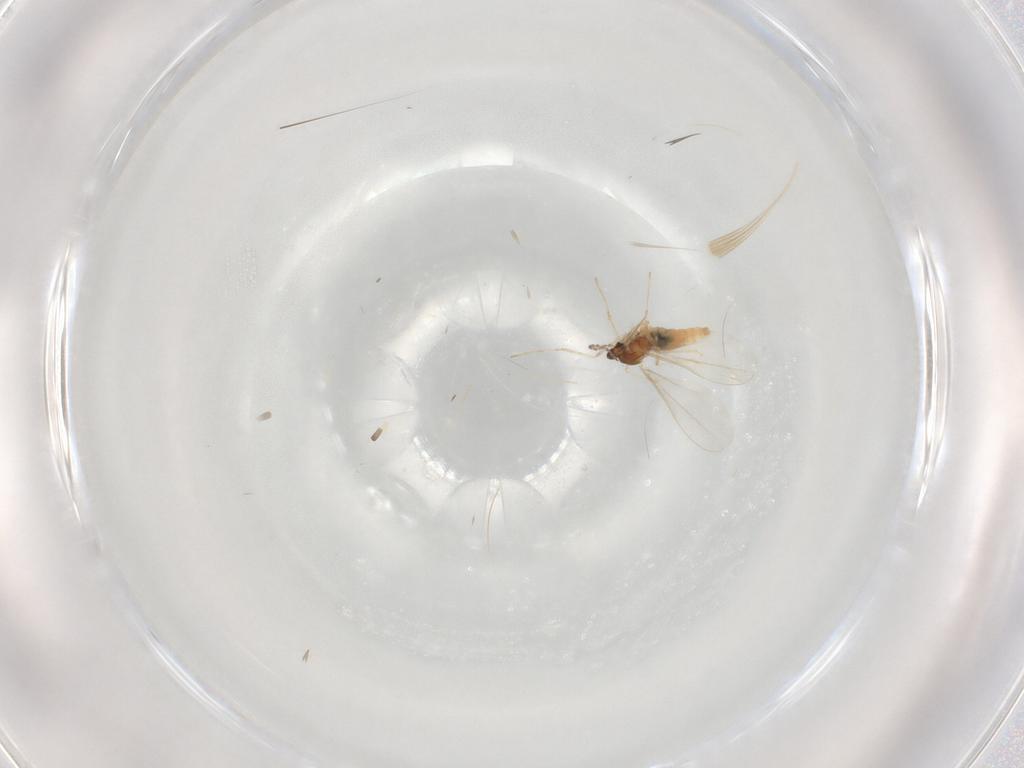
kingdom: Animalia
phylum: Arthropoda
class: Insecta
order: Diptera
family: Cecidomyiidae
